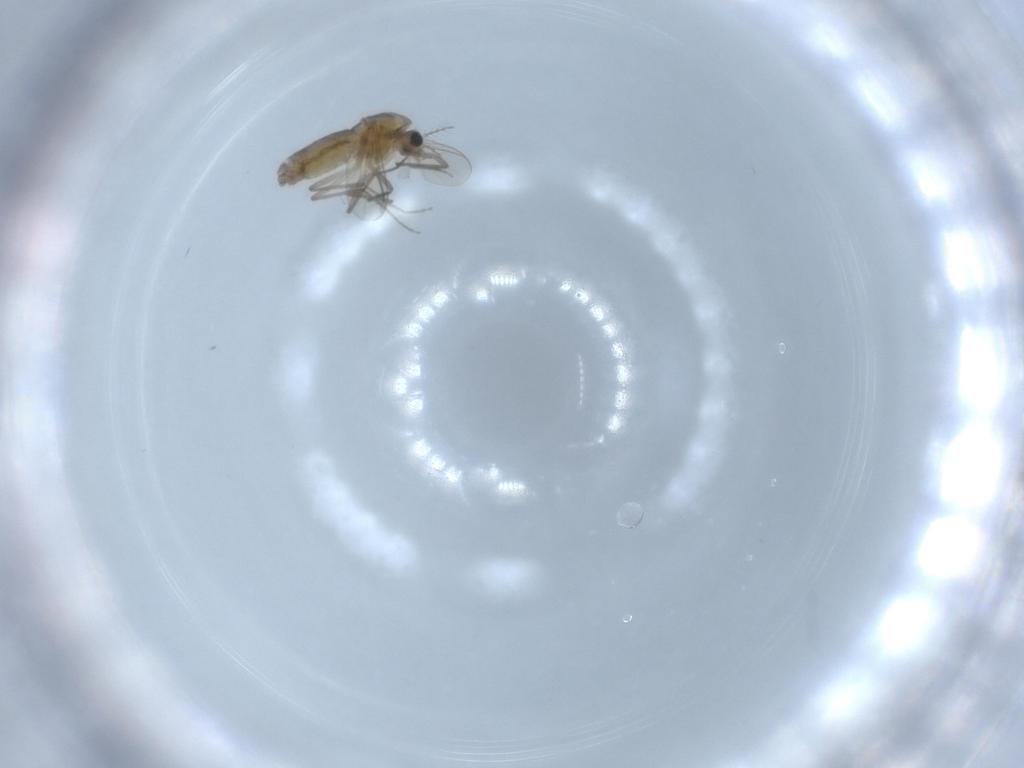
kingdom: Animalia
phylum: Arthropoda
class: Insecta
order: Diptera
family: Chironomidae
